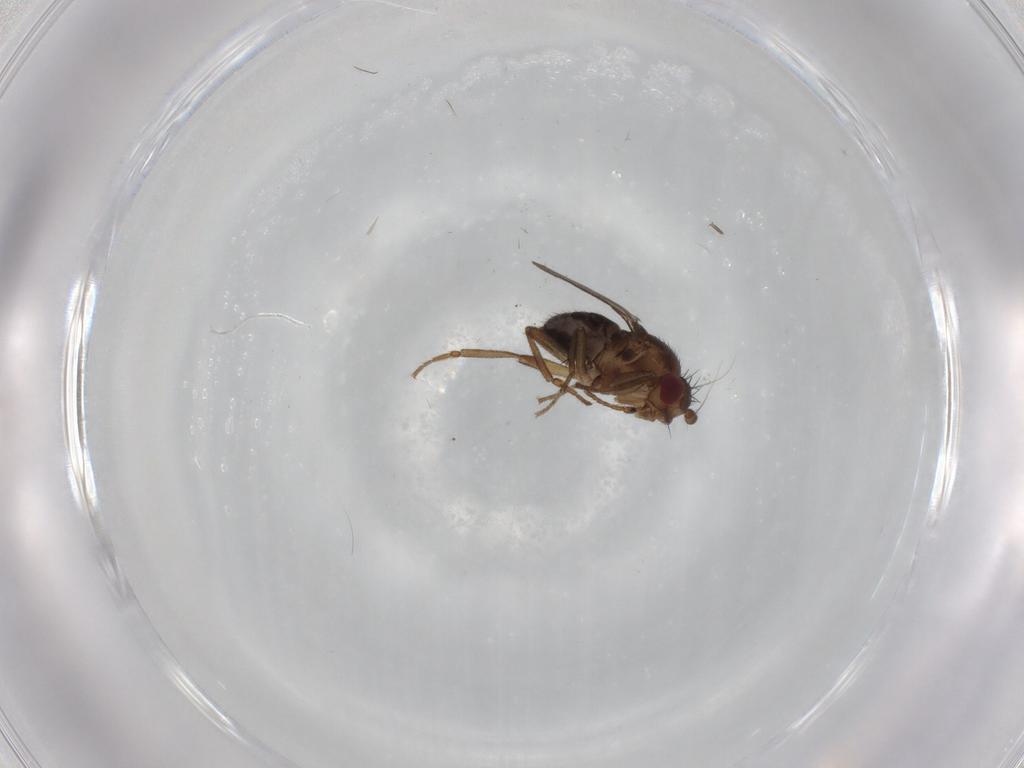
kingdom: Animalia
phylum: Arthropoda
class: Insecta
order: Diptera
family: Sphaeroceridae
